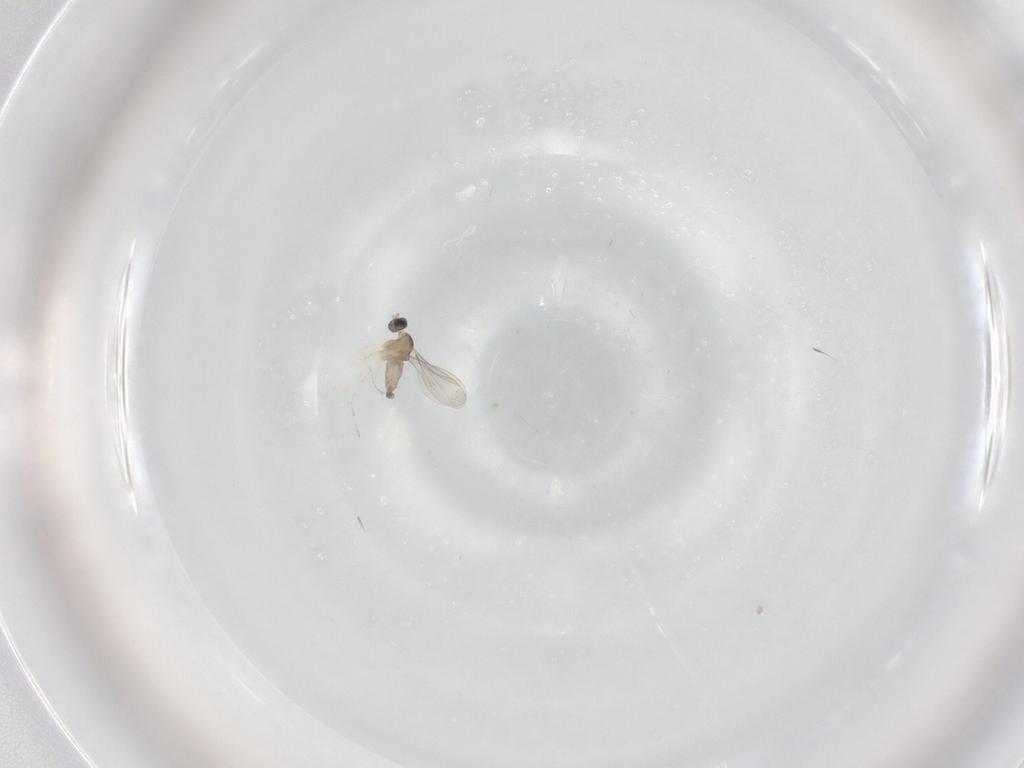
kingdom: Animalia
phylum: Arthropoda
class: Insecta
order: Diptera
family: Cecidomyiidae
